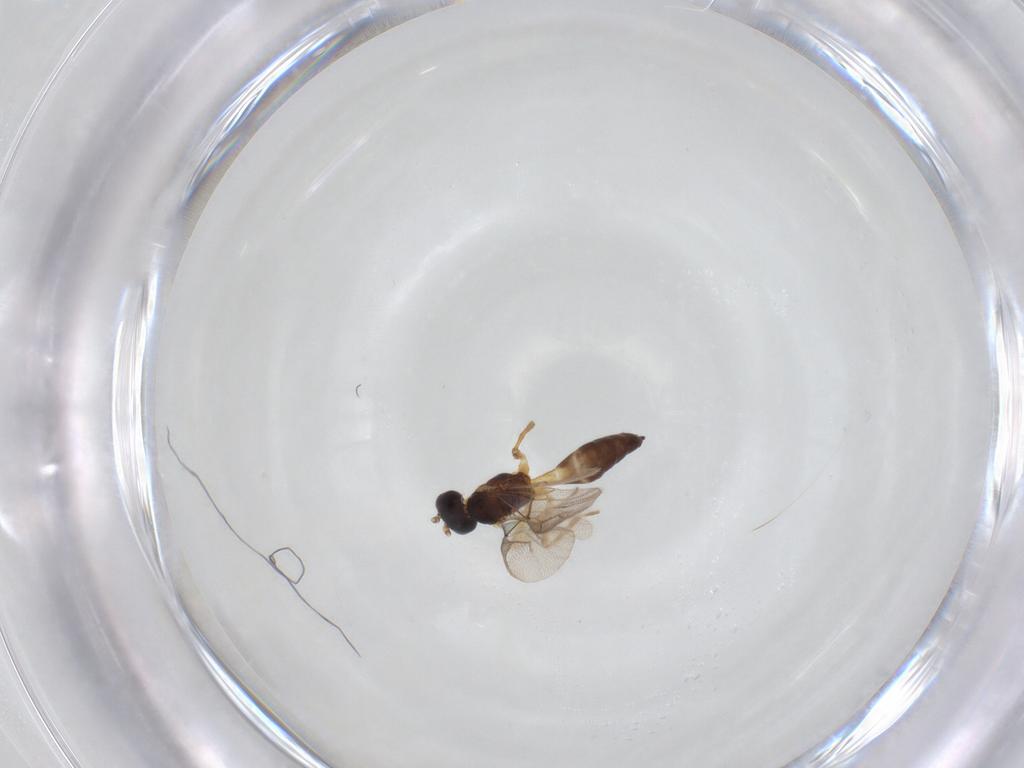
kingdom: Animalia
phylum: Arthropoda
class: Insecta
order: Hymenoptera
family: Braconidae
